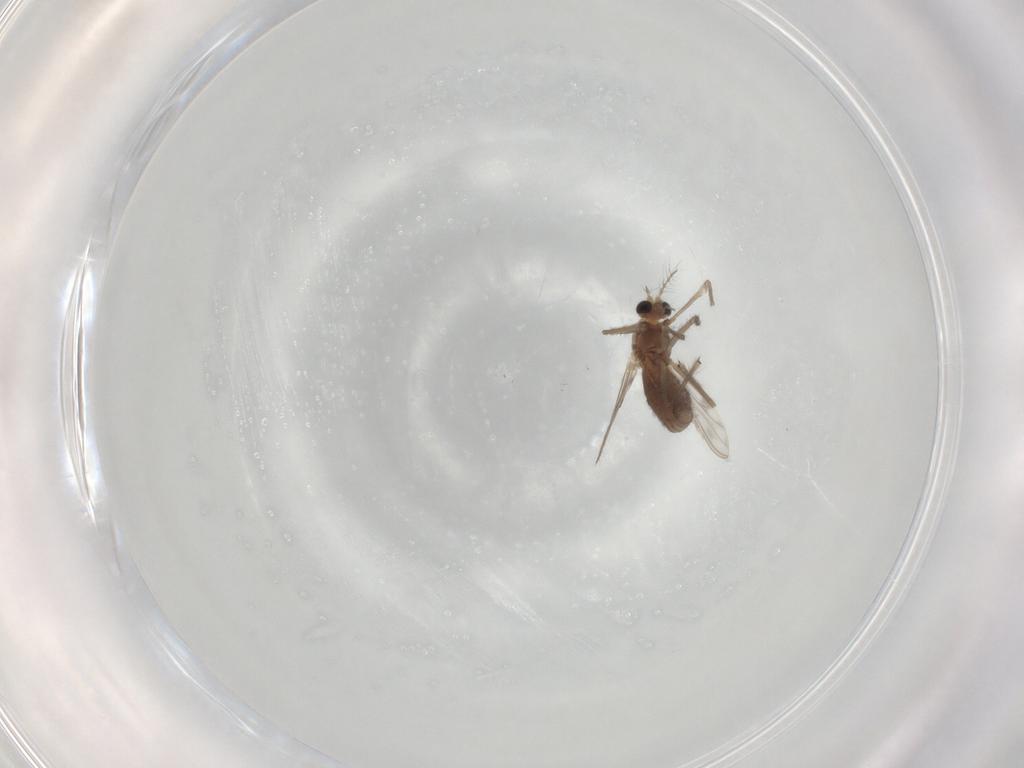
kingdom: Animalia
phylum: Arthropoda
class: Insecta
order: Diptera
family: Chironomidae
